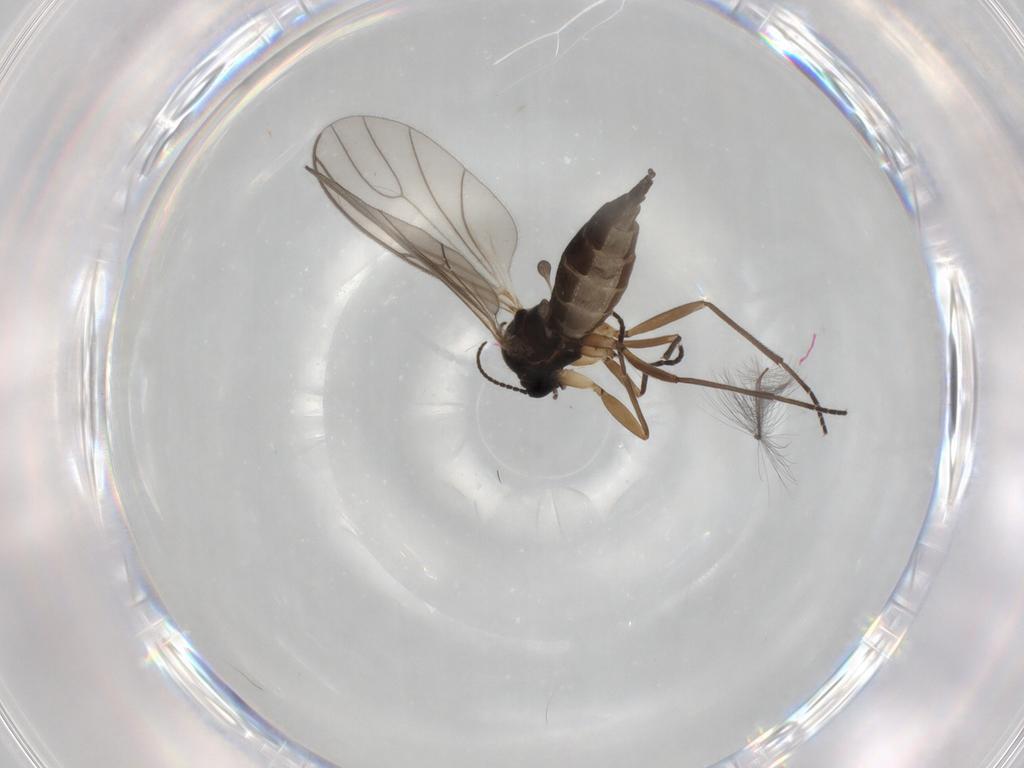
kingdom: Animalia
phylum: Arthropoda
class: Insecta
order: Diptera
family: Sciaridae
